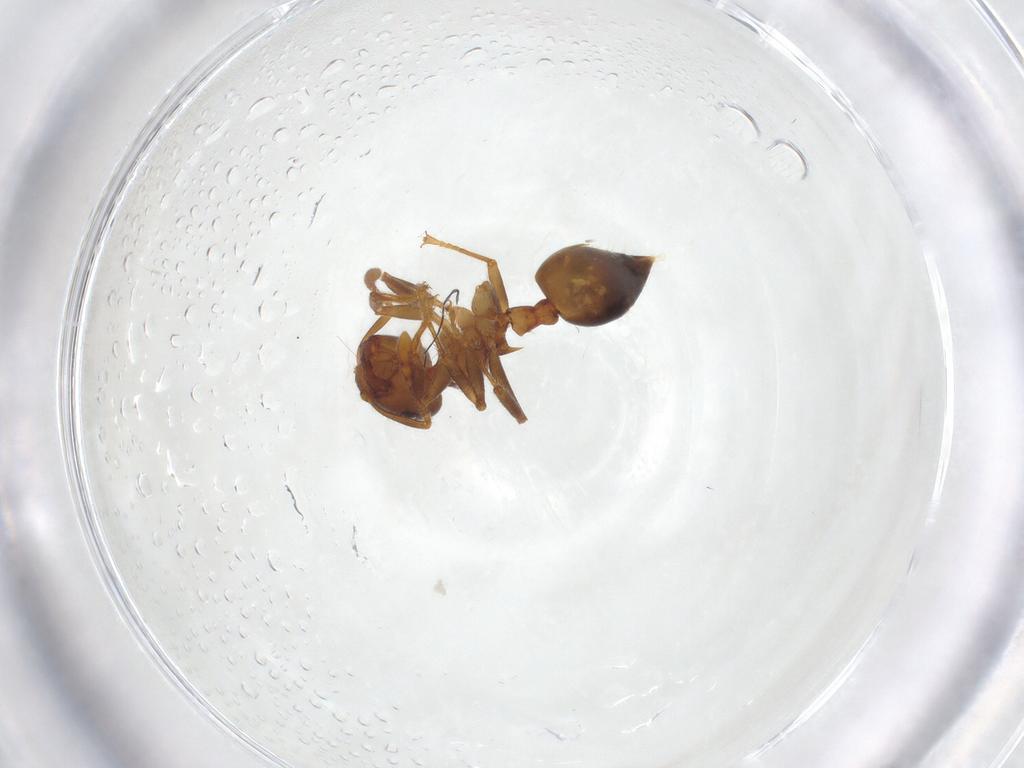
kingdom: Animalia
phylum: Arthropoda
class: Insecta
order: Hymenoptera
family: Formicidae
